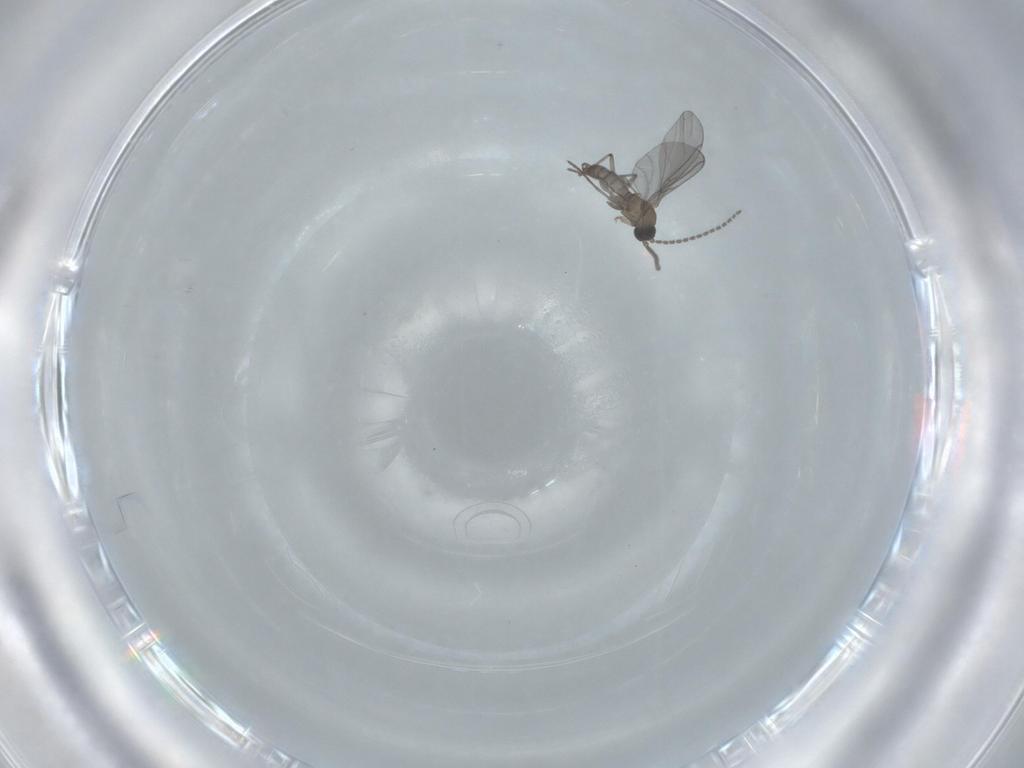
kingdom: Animalia
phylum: Arthropoda
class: Insecta
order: Diptera
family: Sciaridae
